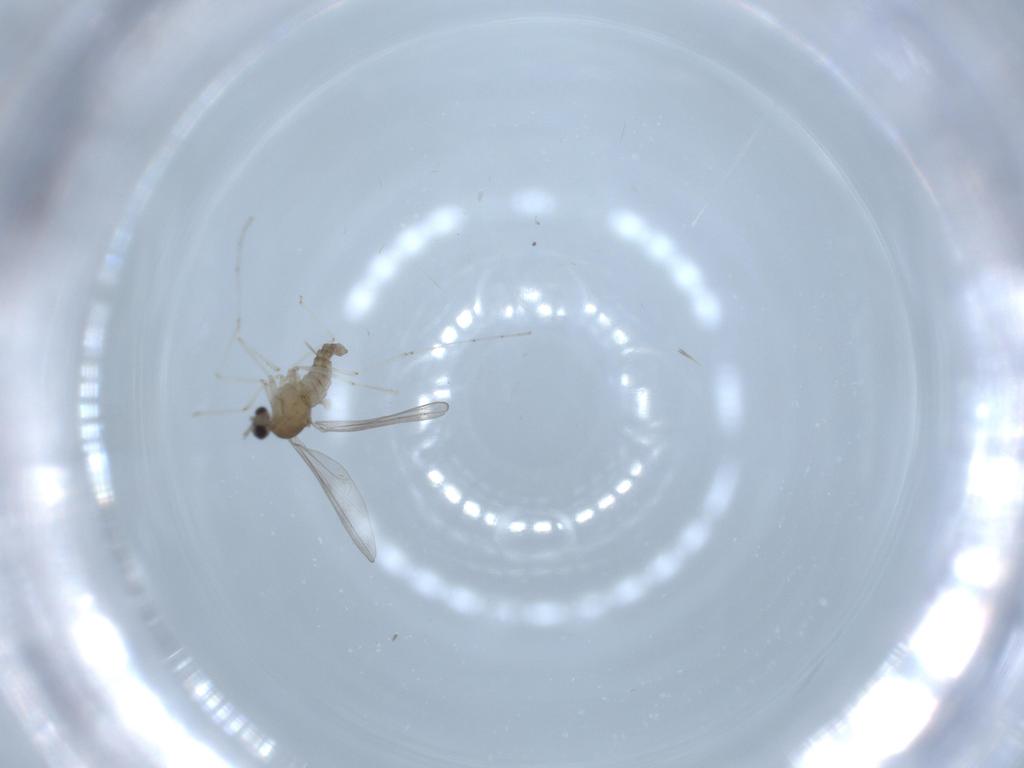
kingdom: Animalia
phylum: Arthropoda
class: Insecta
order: Diptera
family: Cecidomyiidae
